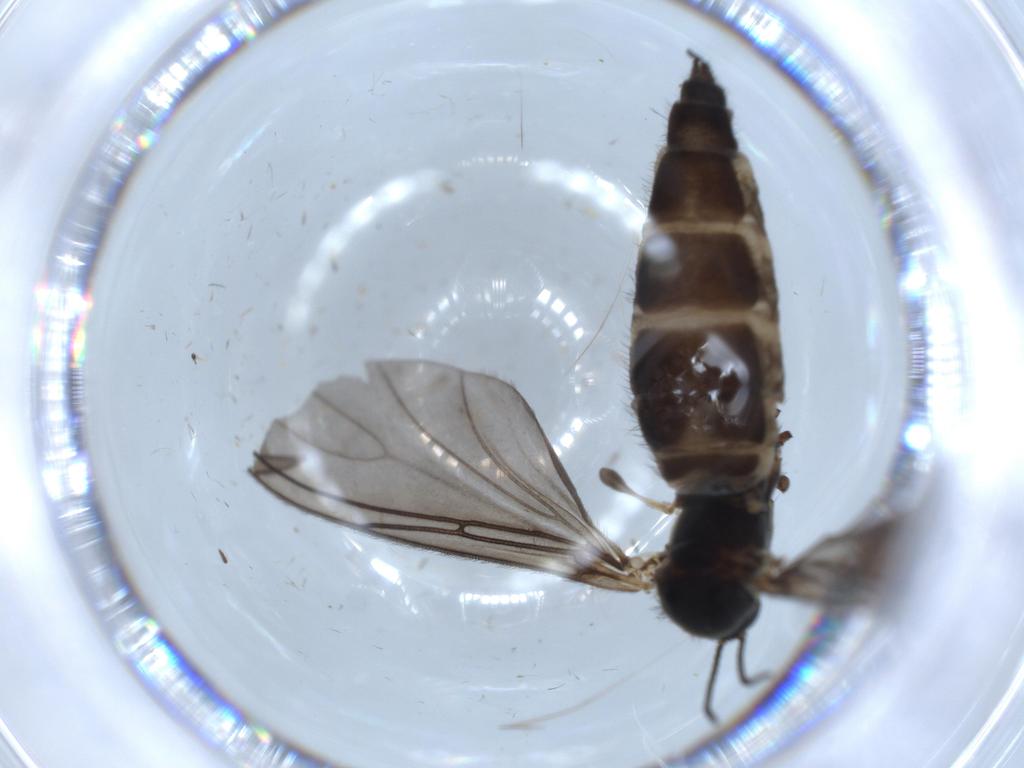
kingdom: Animalia
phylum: Arthropoda
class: Insecta
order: Diptera
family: Sciaridae
